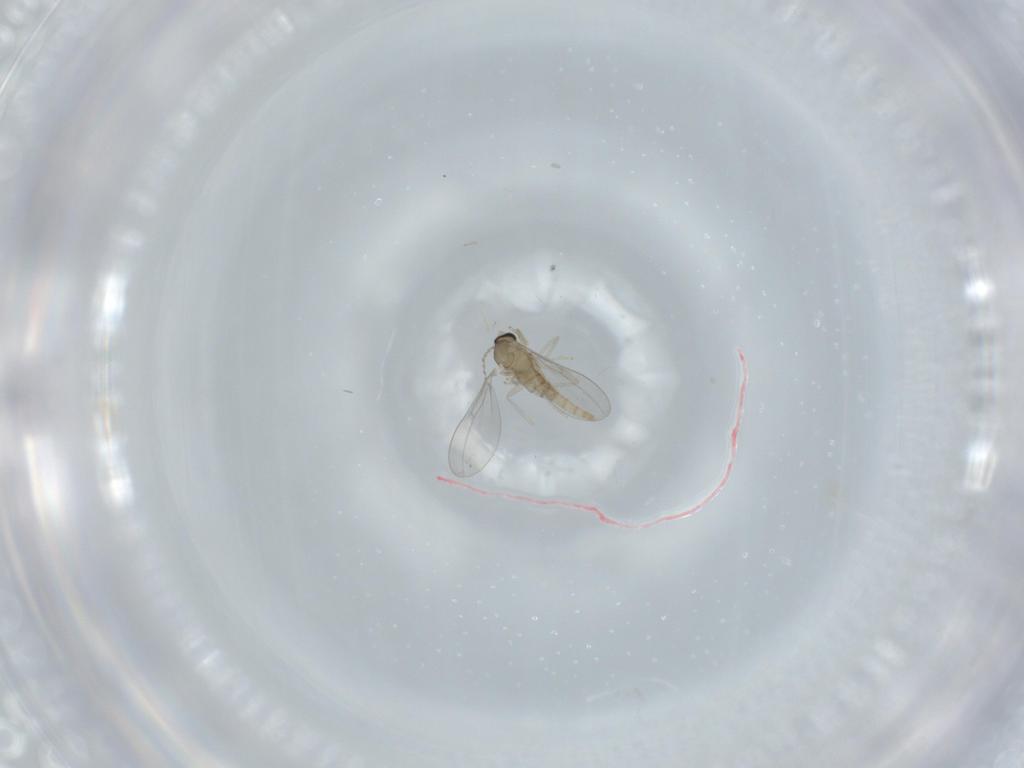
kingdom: Animalia
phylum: Arthropoda
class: Insecta
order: Diptera
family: Cecidomyiidae
